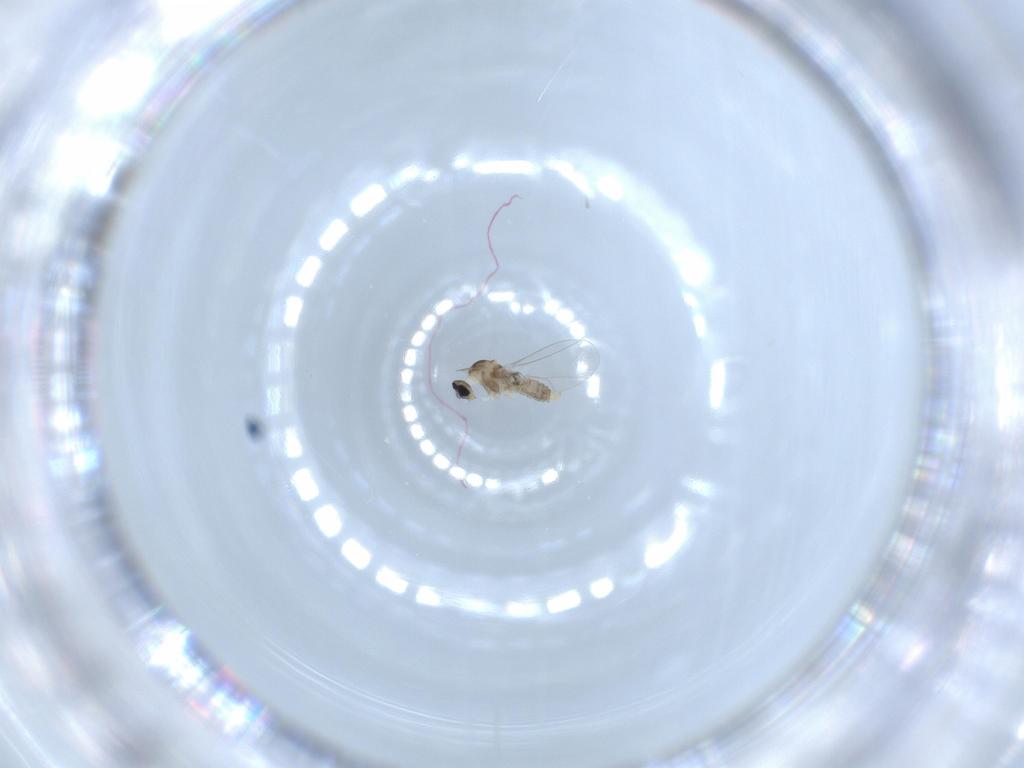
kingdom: Animalia
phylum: Arthropoda
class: Insecta
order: Diptera
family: Cecidomyiidae
